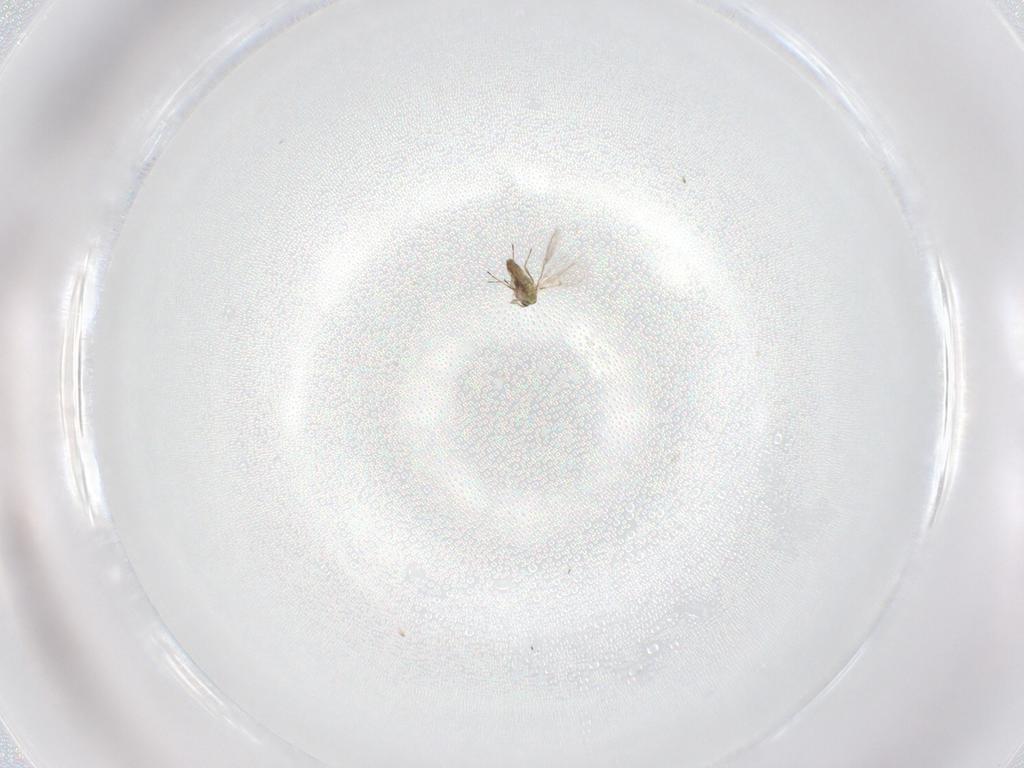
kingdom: Animalia
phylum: Arthropoda
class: Insecta
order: Hymenoptera
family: Trichogrammatidae
